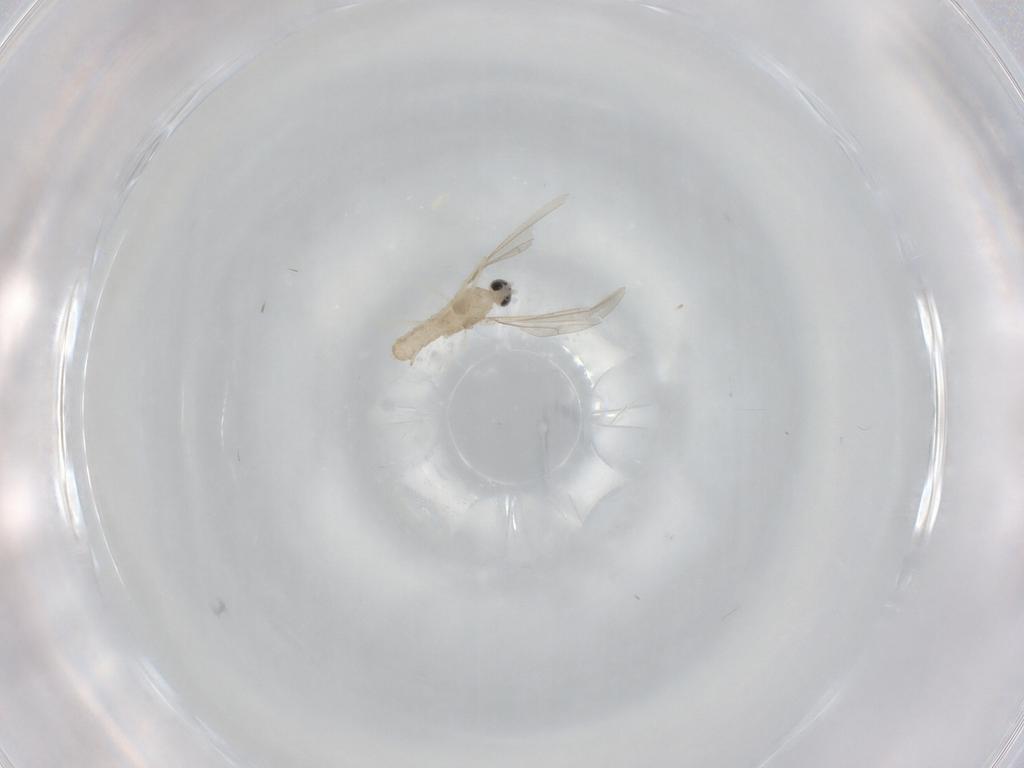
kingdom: Animalia
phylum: Arthropoda
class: Insecta
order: Diptera
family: Cecidomyiidae
